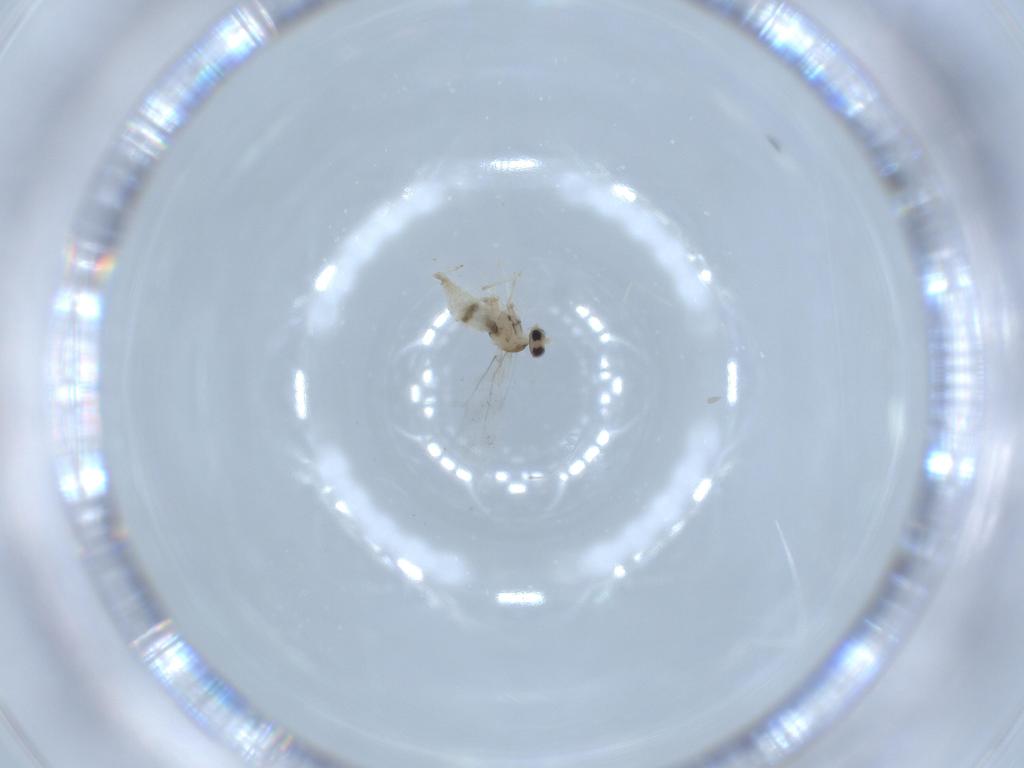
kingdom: Animalia
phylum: Arthropoda
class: Insecta
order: Diptera
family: Cecidomyiidae
